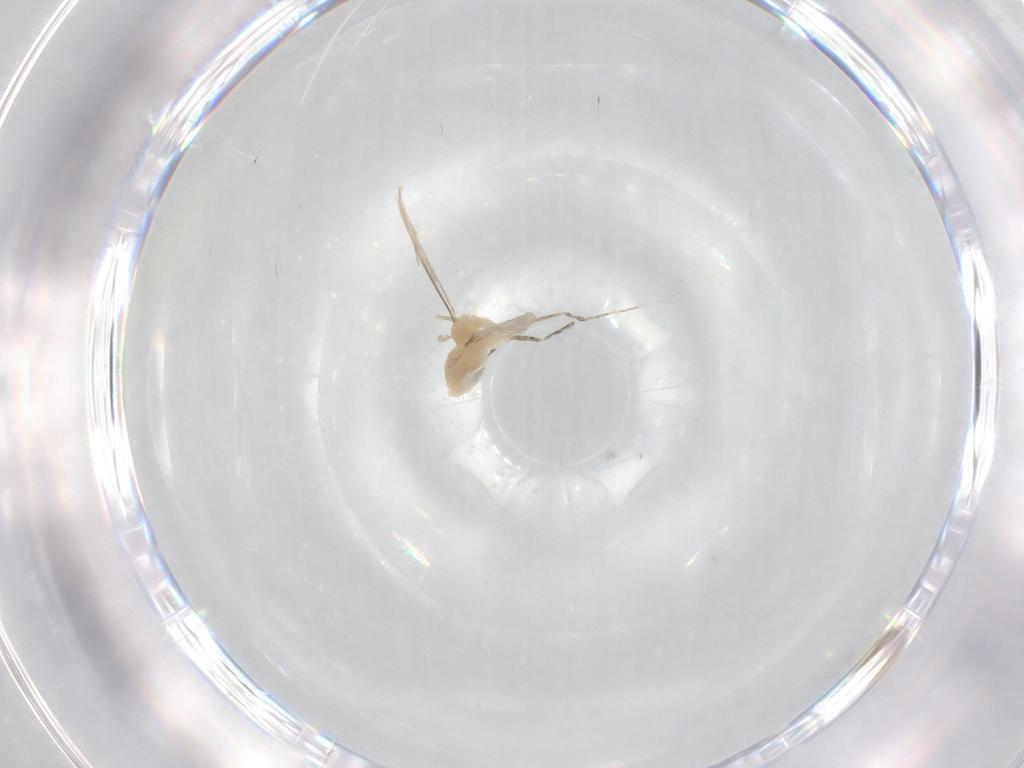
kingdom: Animalia
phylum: Arthropoda
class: Insecta
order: Diptera
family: Cecidomyiidae
